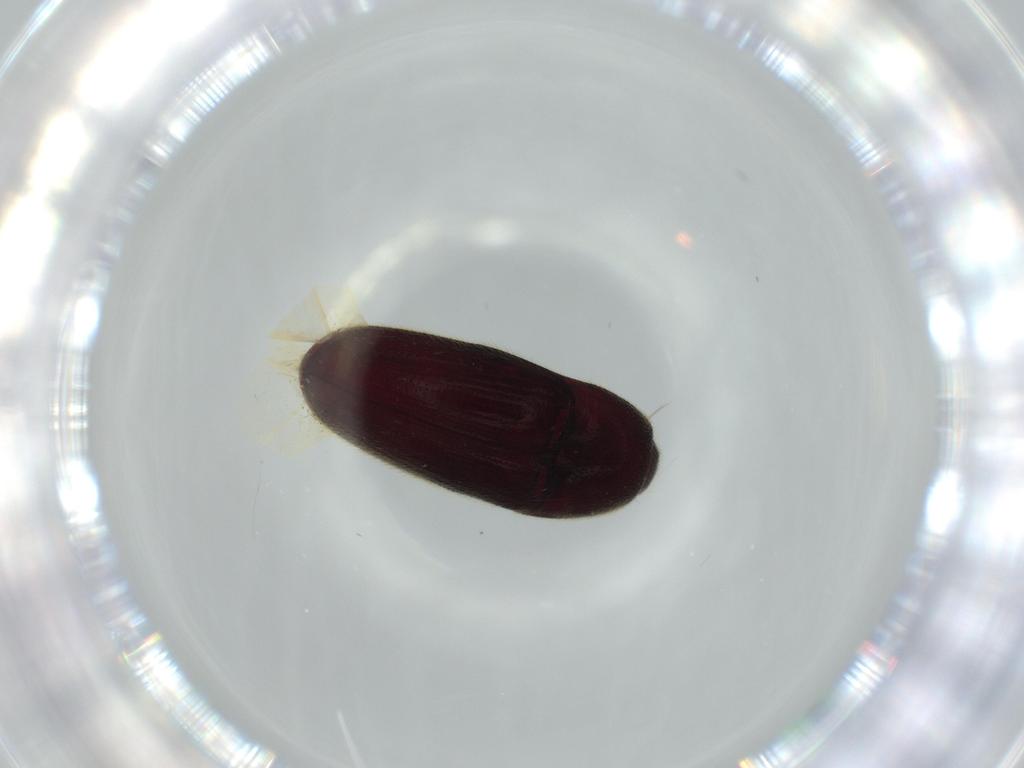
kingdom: Animalia
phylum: Arthropoda
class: Insecta
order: Coleoptera
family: Throscidae
